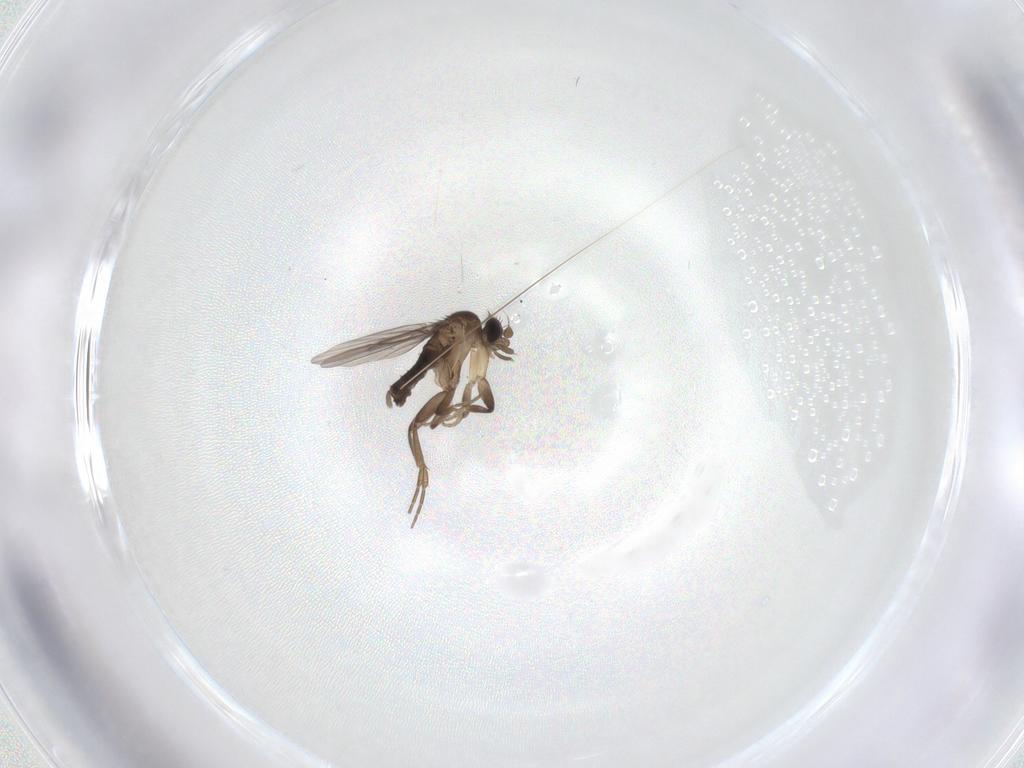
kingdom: Animalia
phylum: Arthropoda
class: Insecta
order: Diptera
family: Phoridae
